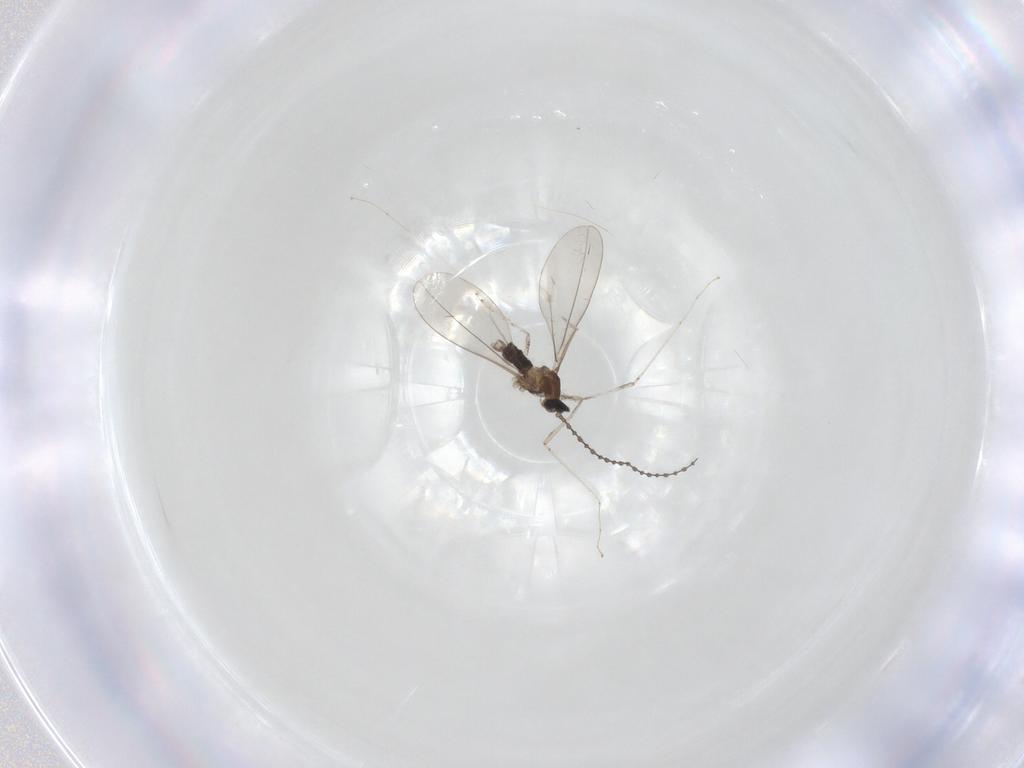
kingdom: Animalia
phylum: Arthropoda
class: Insecta
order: Diptera
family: Cecidomyiidae
